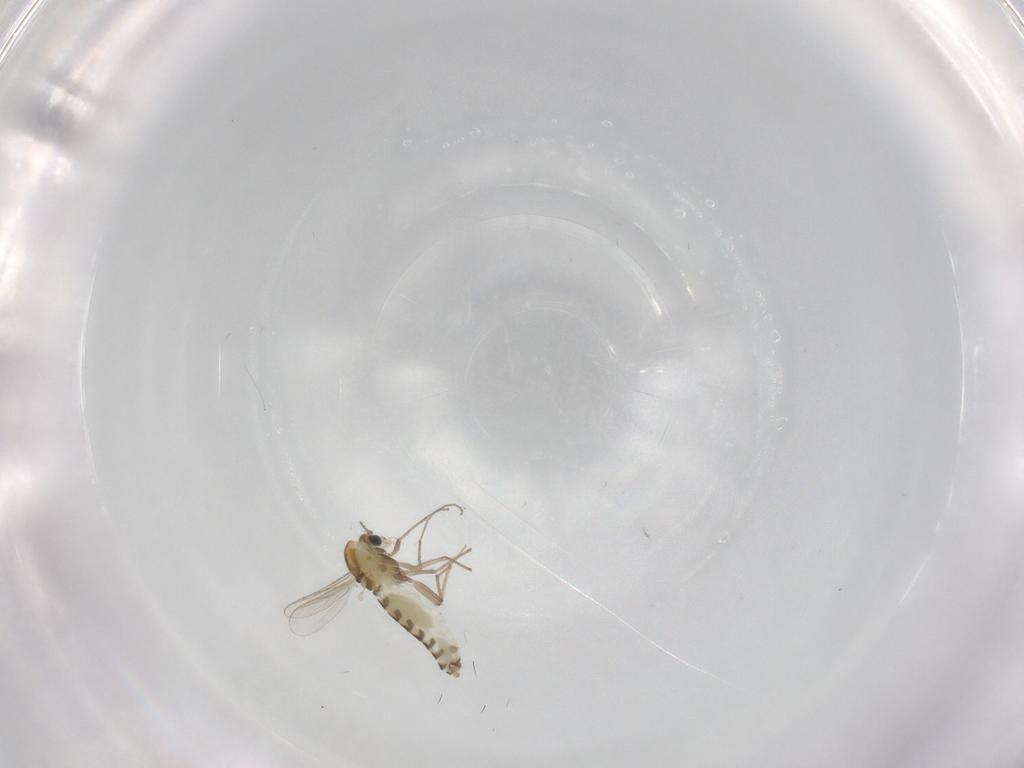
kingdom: Animalia
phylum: Arthropoda
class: Insecta
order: Diptera
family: Chironomidae
